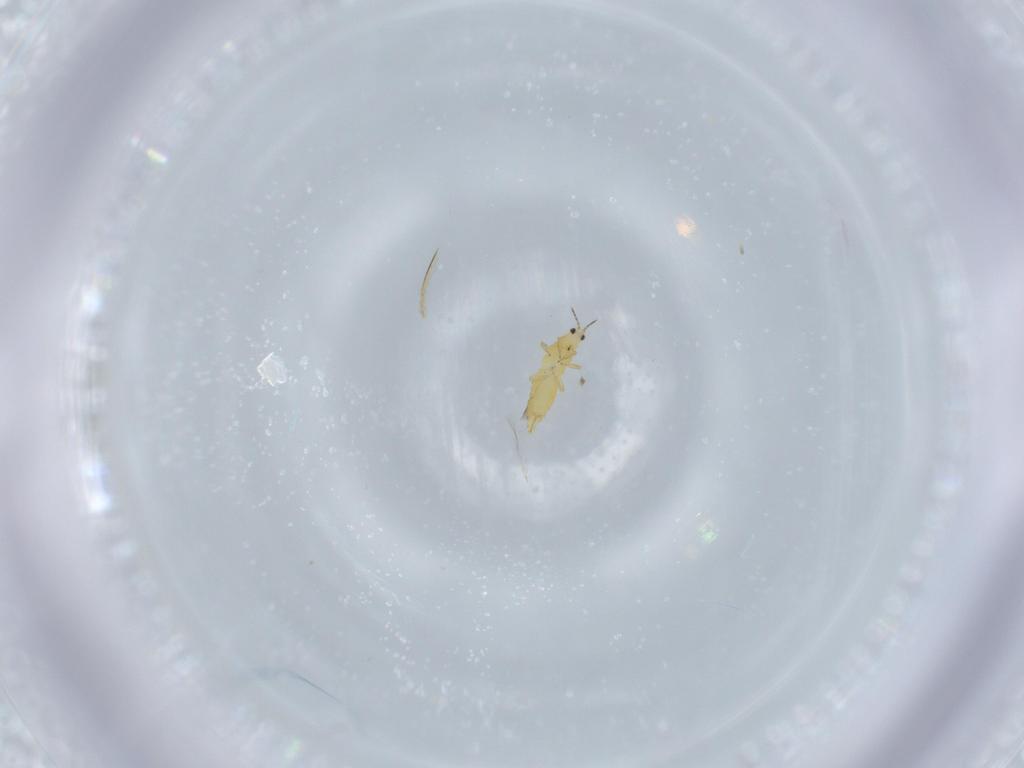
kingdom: Animalia
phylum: Arthropoda
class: Insecta
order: Thysanoptera
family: Thripidae
